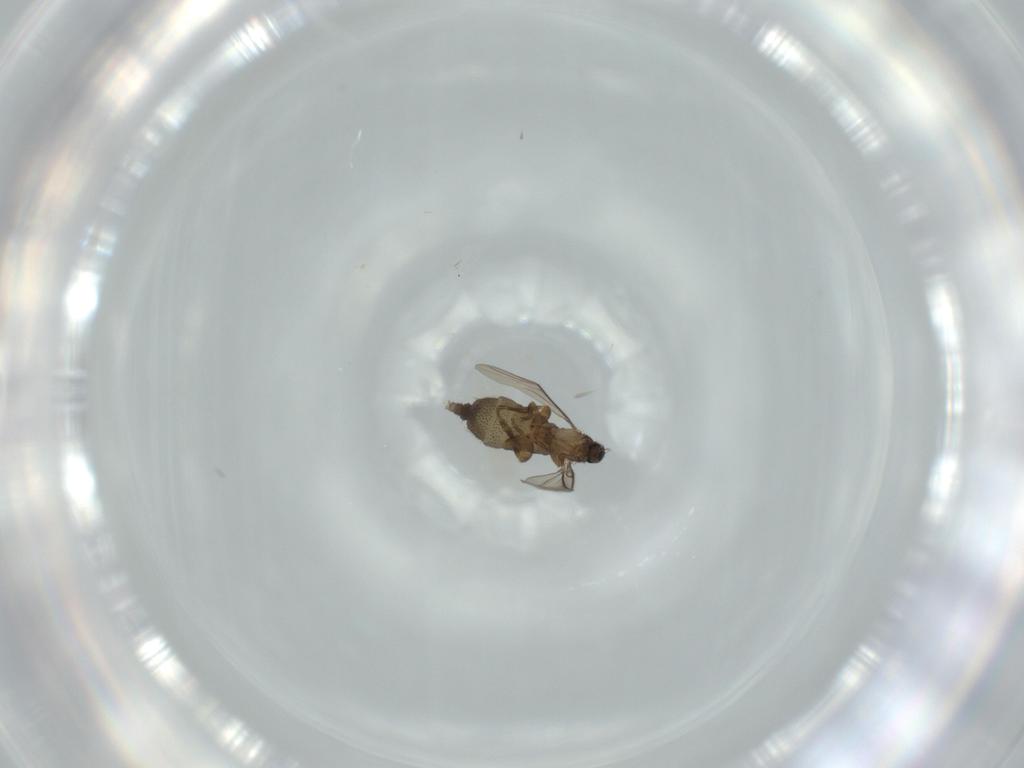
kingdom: Animalia
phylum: Arthropoda
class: Insecta
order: Diptera
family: Phoridae
